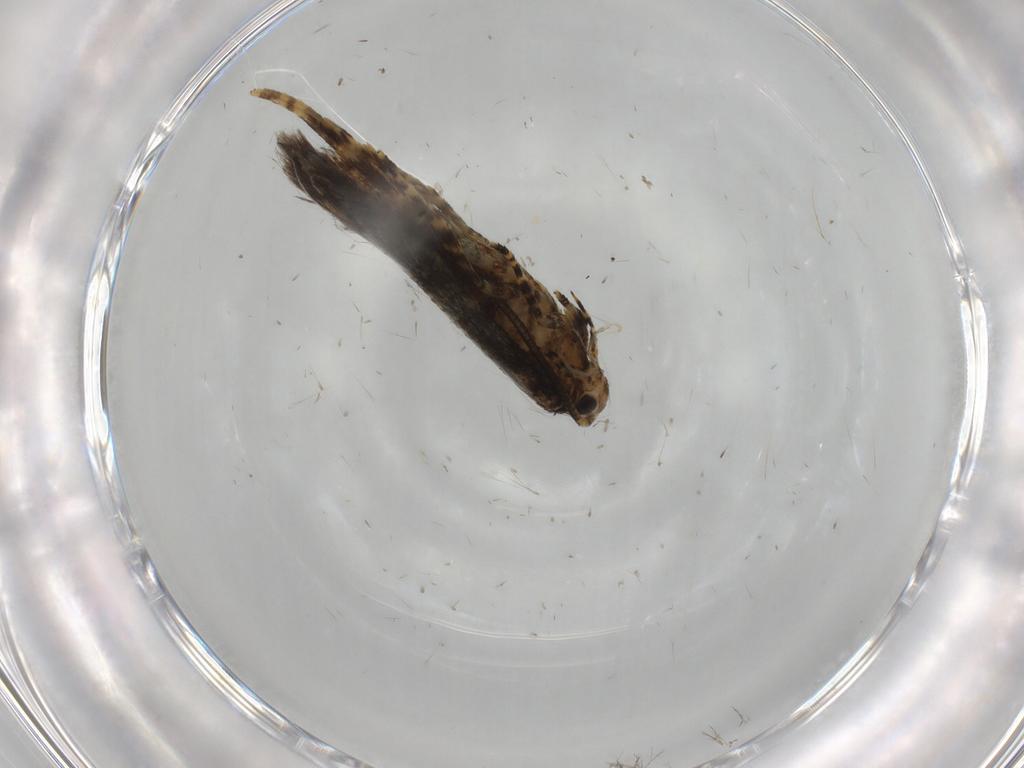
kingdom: Animalia
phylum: Arthropoda
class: Insecta
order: Lepidoptera
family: Oecophoridae
